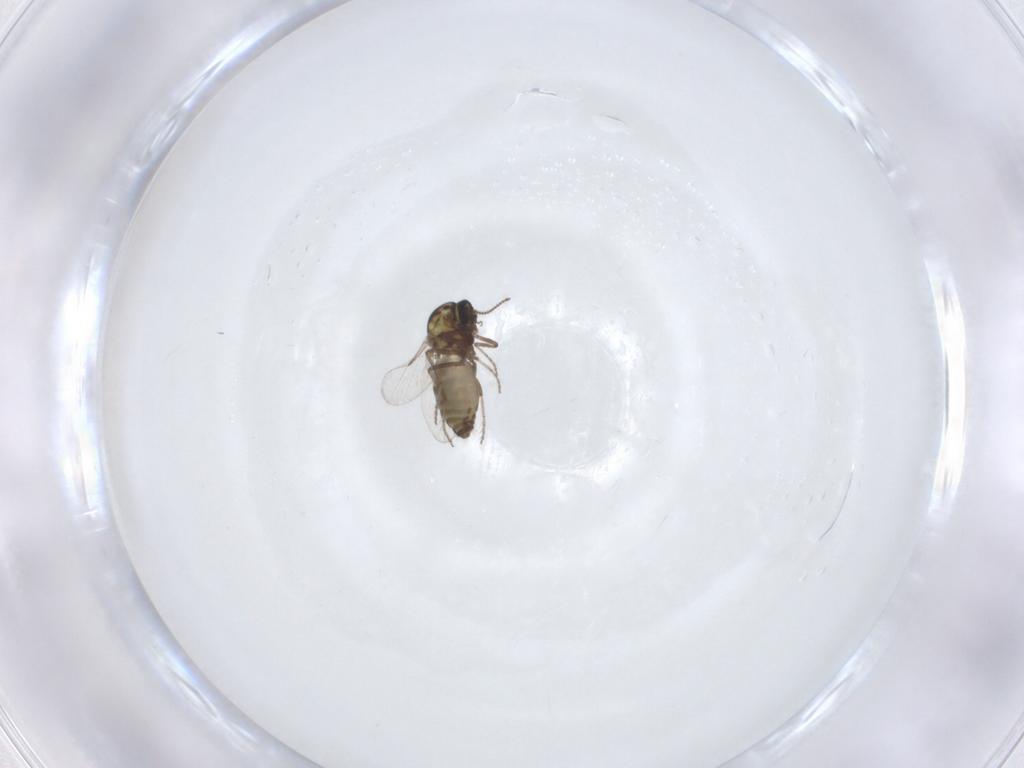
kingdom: Animalia
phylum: Arthropoda
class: Insecta
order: Diptera
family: Ceratopogonidae
